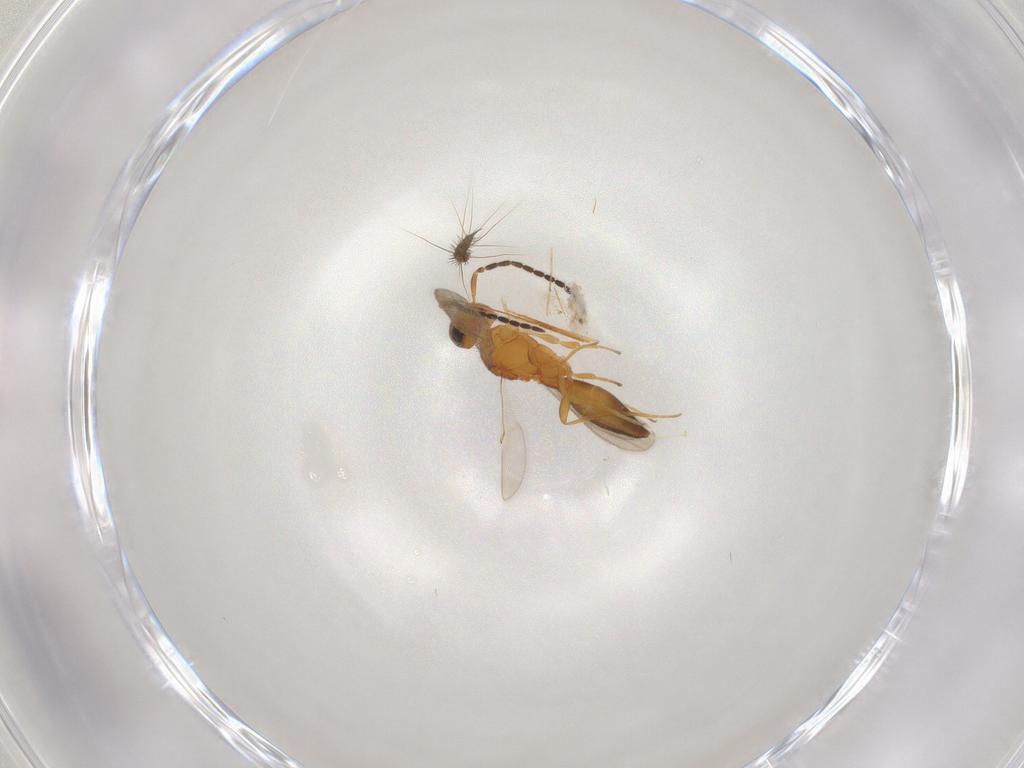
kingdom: Animalia
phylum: Arthropoda
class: Insecta
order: Hymenoptera
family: Scelionidae
